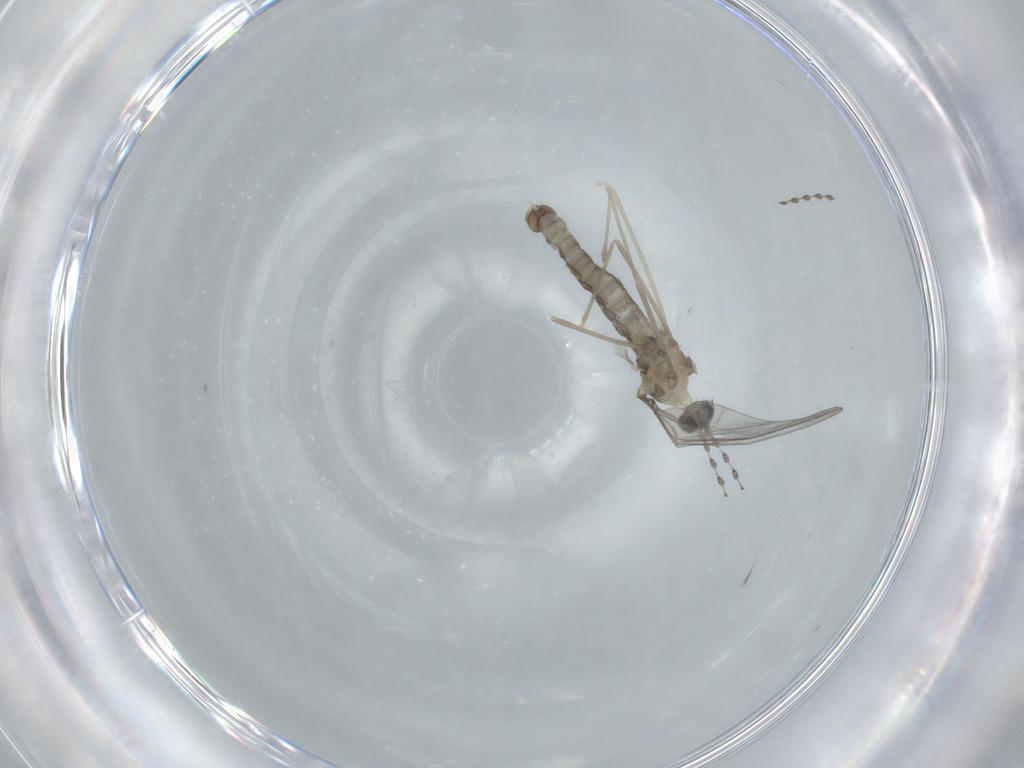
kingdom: Animalia
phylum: Arthropoda
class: Insecta
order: Diptera
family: Cecidomyiidae
